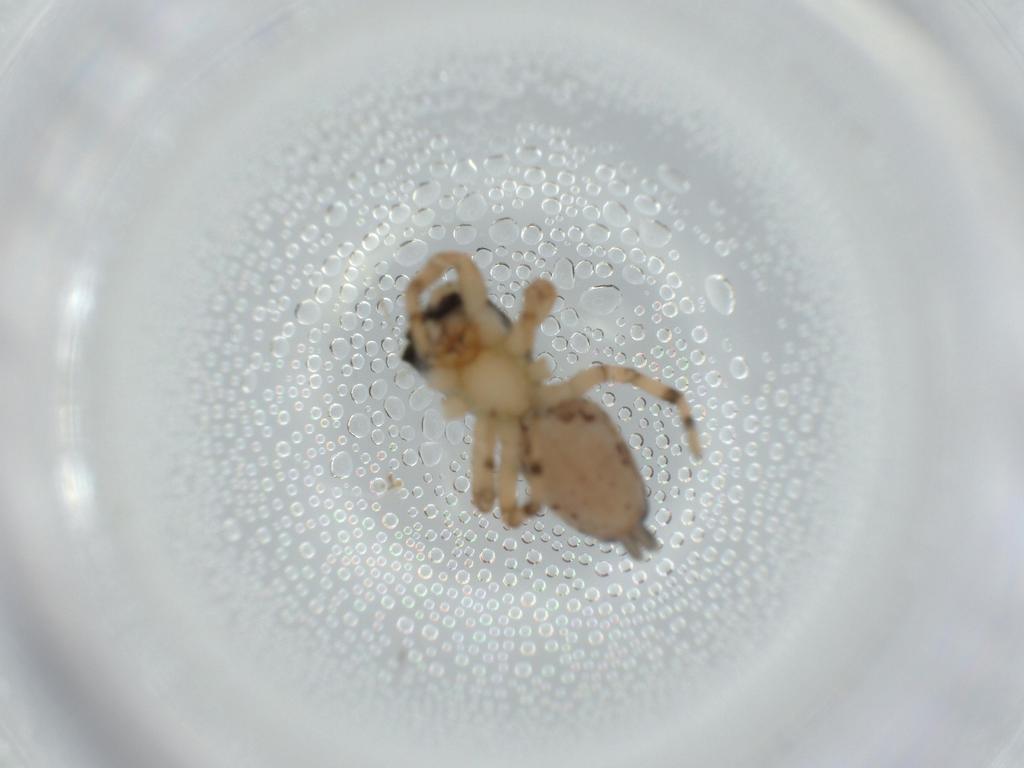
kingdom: Animalia
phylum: Arthropoda
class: Arachnida
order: Araneae
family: Salticidae
